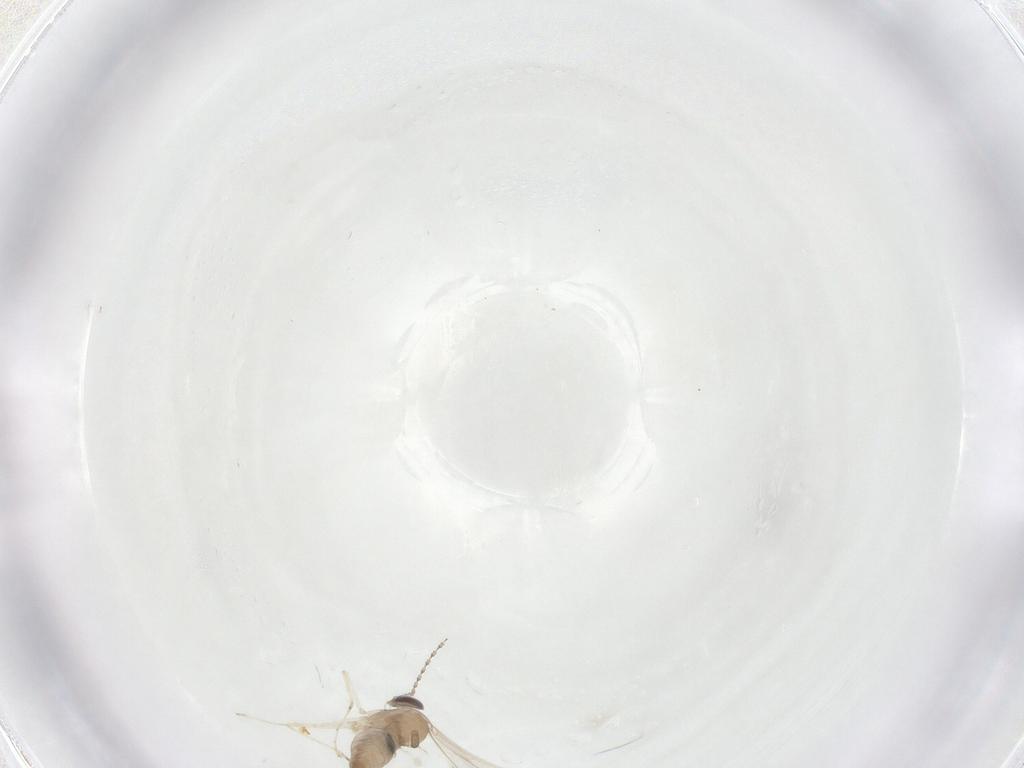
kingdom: Animalia
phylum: Arthropoda
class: Insecta
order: Diptera
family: Cecidomyiidae
